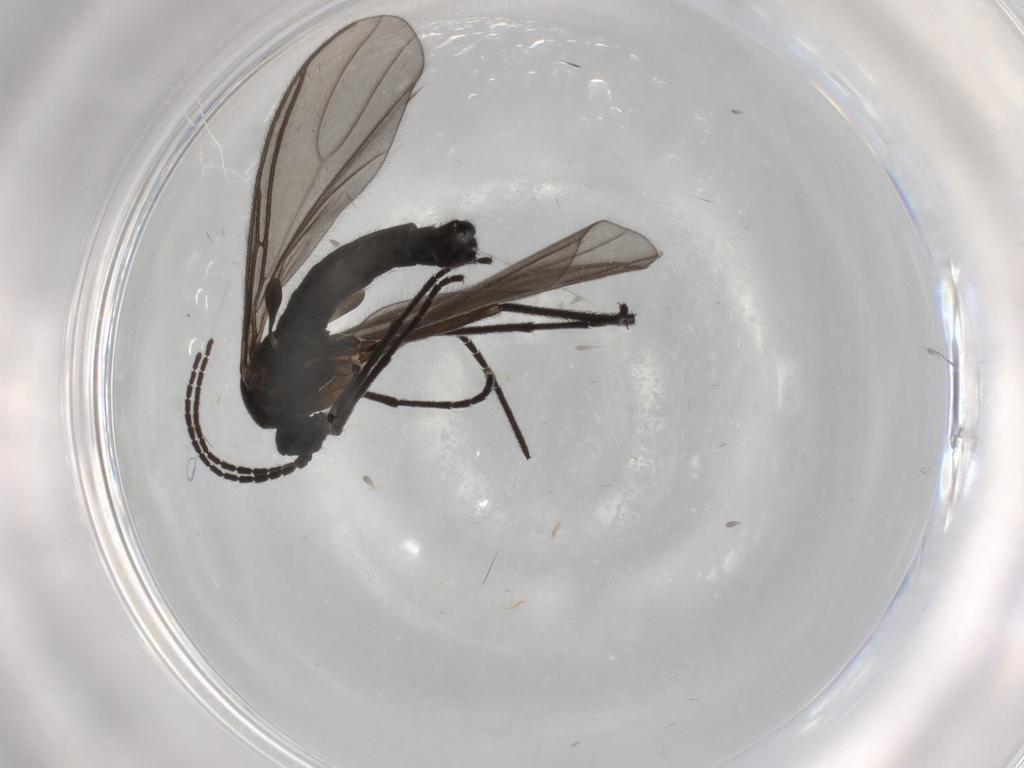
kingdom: Animalia
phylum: Arthropoda
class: Insecta
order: Diptera
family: Sciaridae
